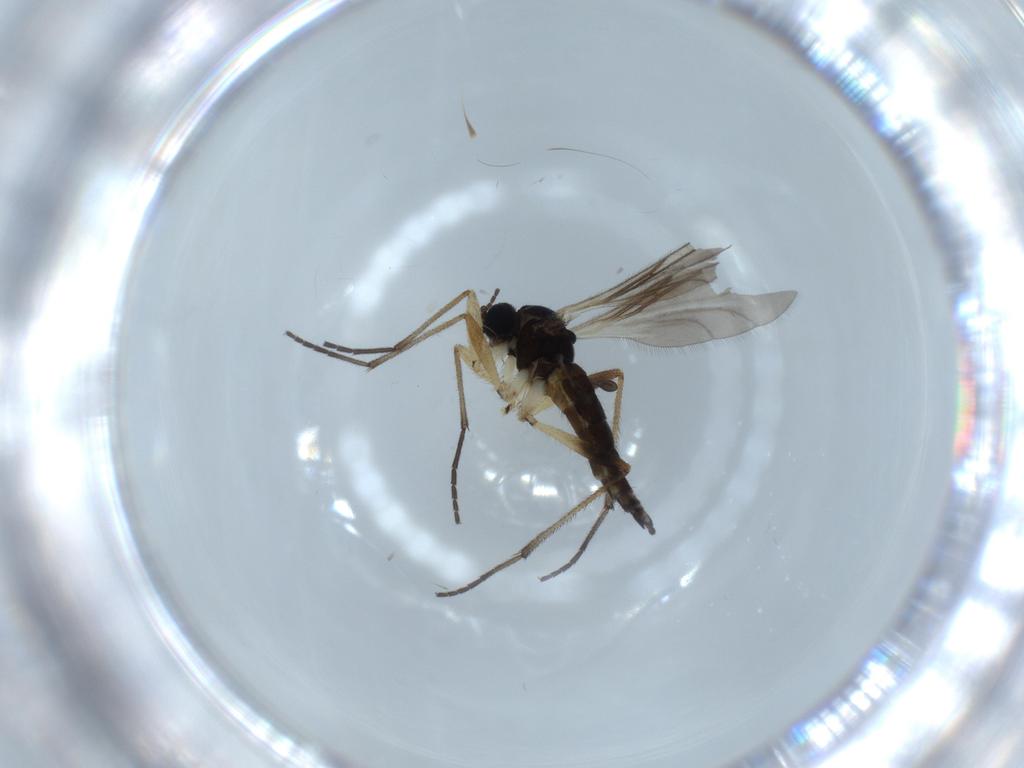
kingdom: Animalia
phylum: Arthropoda
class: Insecta
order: Diptera
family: Sciaridae
